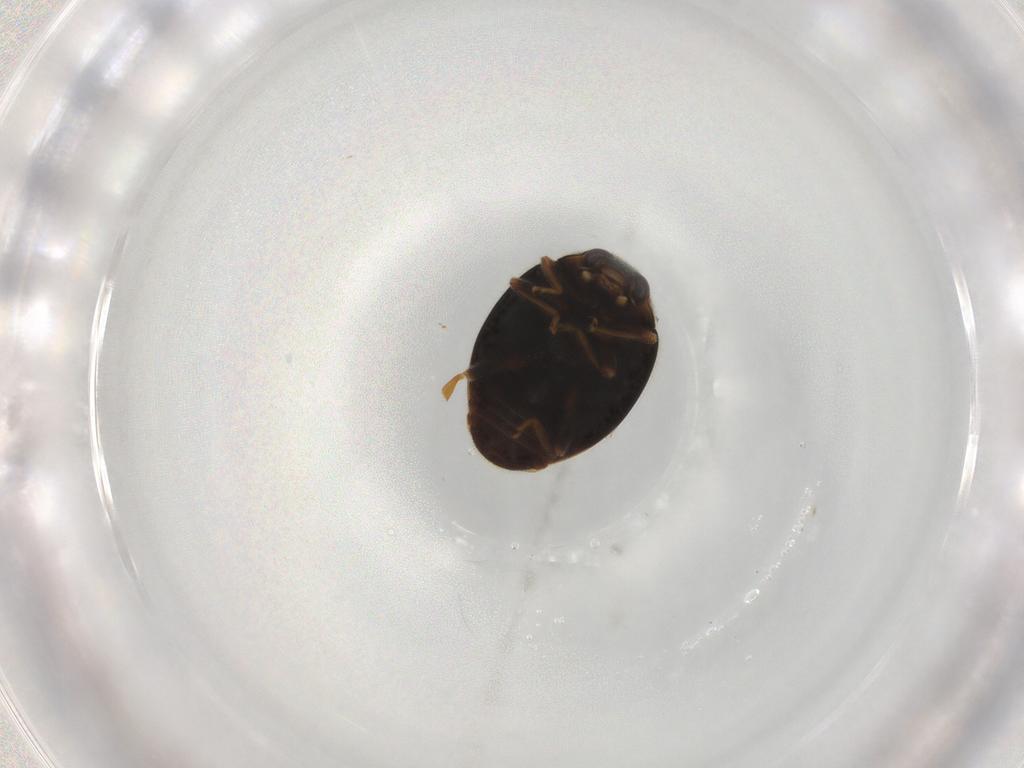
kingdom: Animalia
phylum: Arthropoda
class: Insecta
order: Coleoptera
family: Coccinellidae
